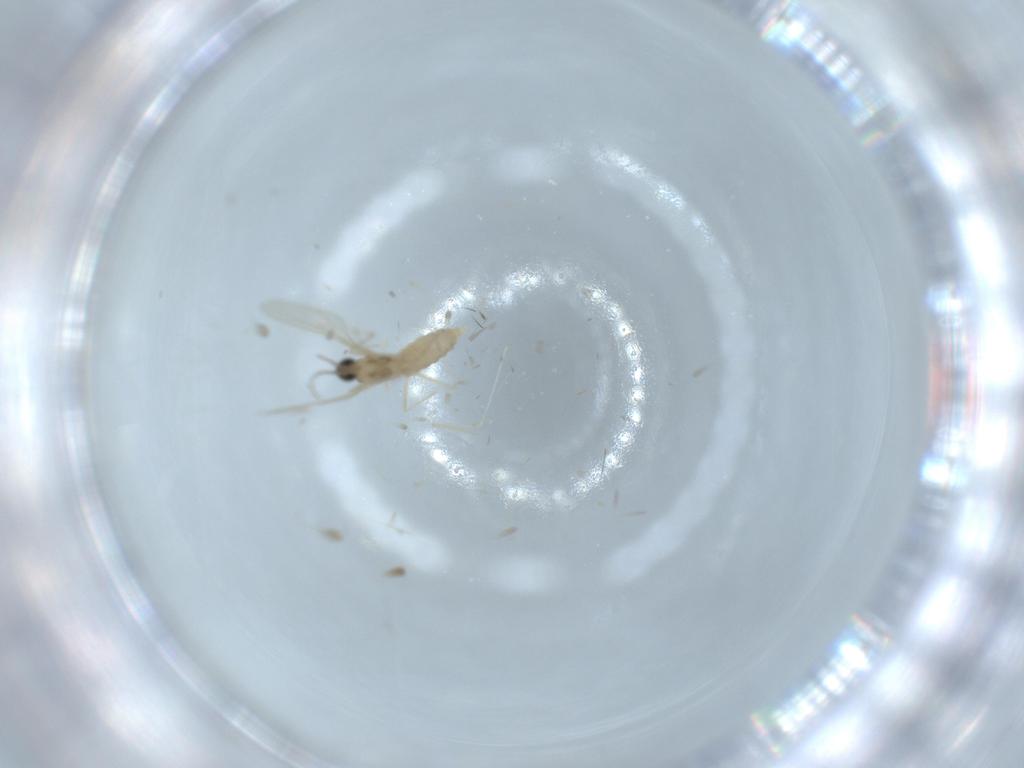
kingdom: Animalia
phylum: Arthropoda
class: Insecta
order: Diptera
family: Cecidomyiidae
